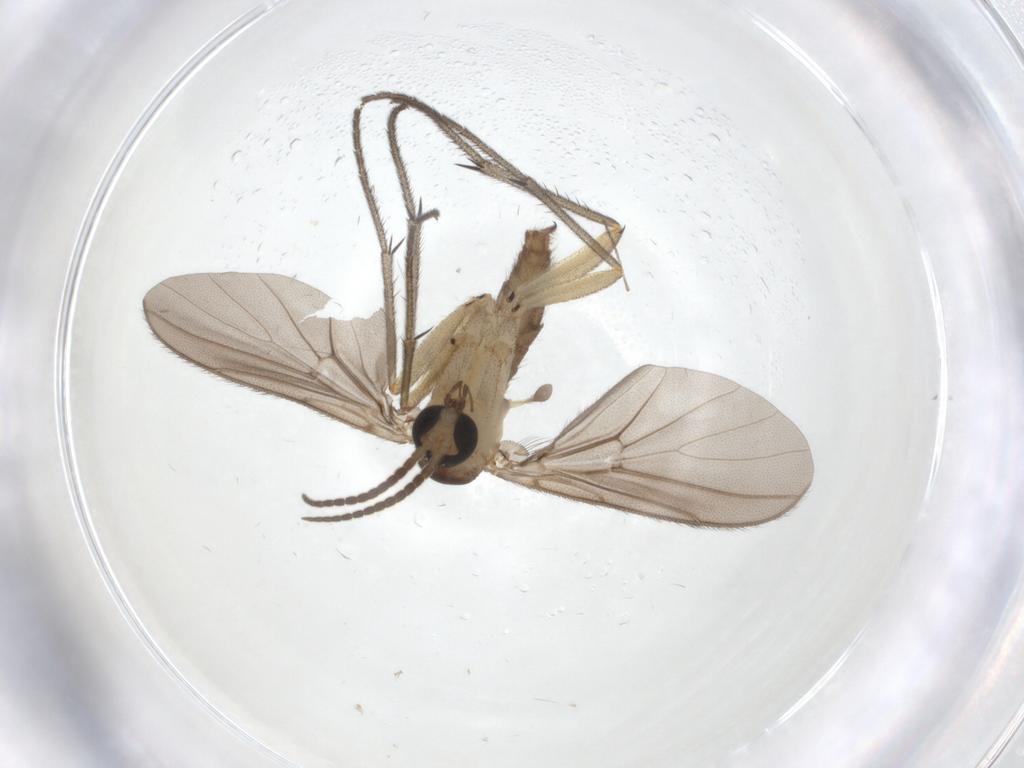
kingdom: Animalia
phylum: Arthropoda
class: Insecta
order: Diptera
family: Diadocidiidae
